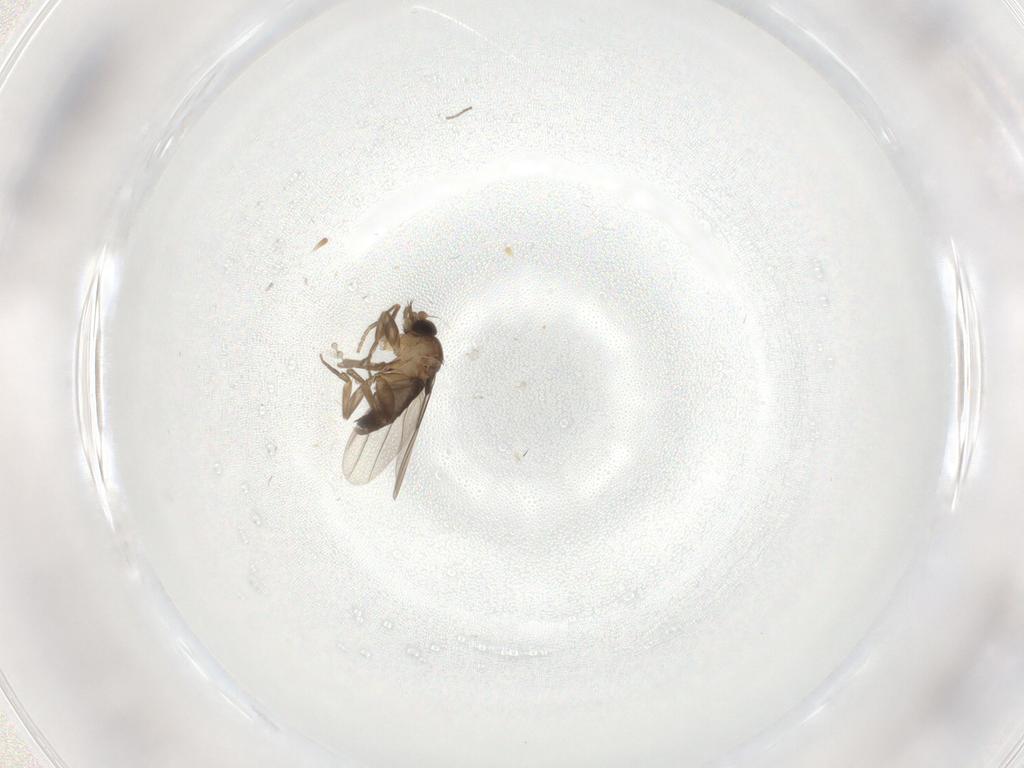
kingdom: Animalia
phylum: Arthropoda
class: Insecta
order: Diptera
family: Phoridae
